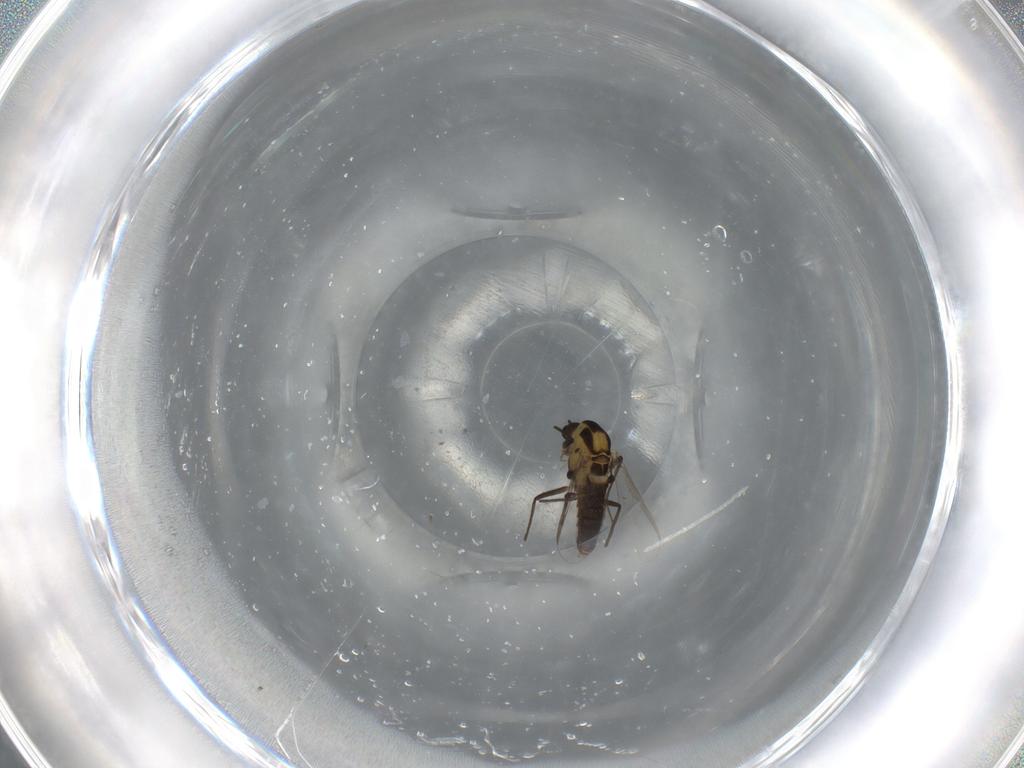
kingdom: Animalia
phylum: Arthropoda
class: Insecta
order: Diptera
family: Chironomidae
